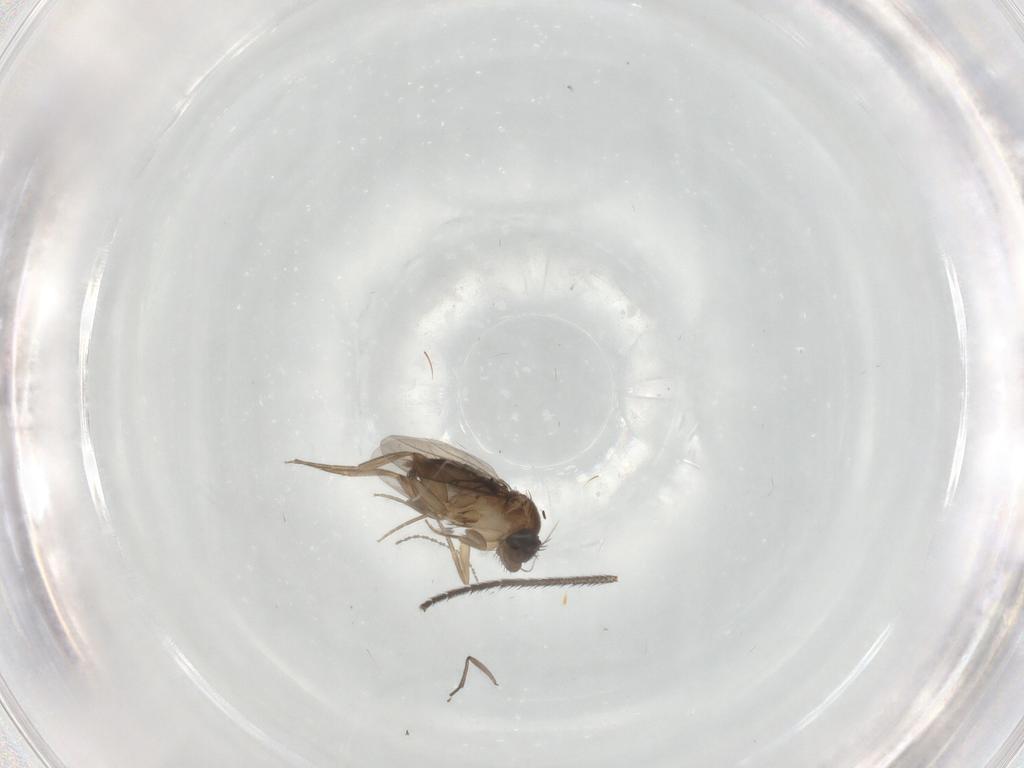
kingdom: Animalia
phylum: Arthropoda
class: Insecta
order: Diptera
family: Phoridae
